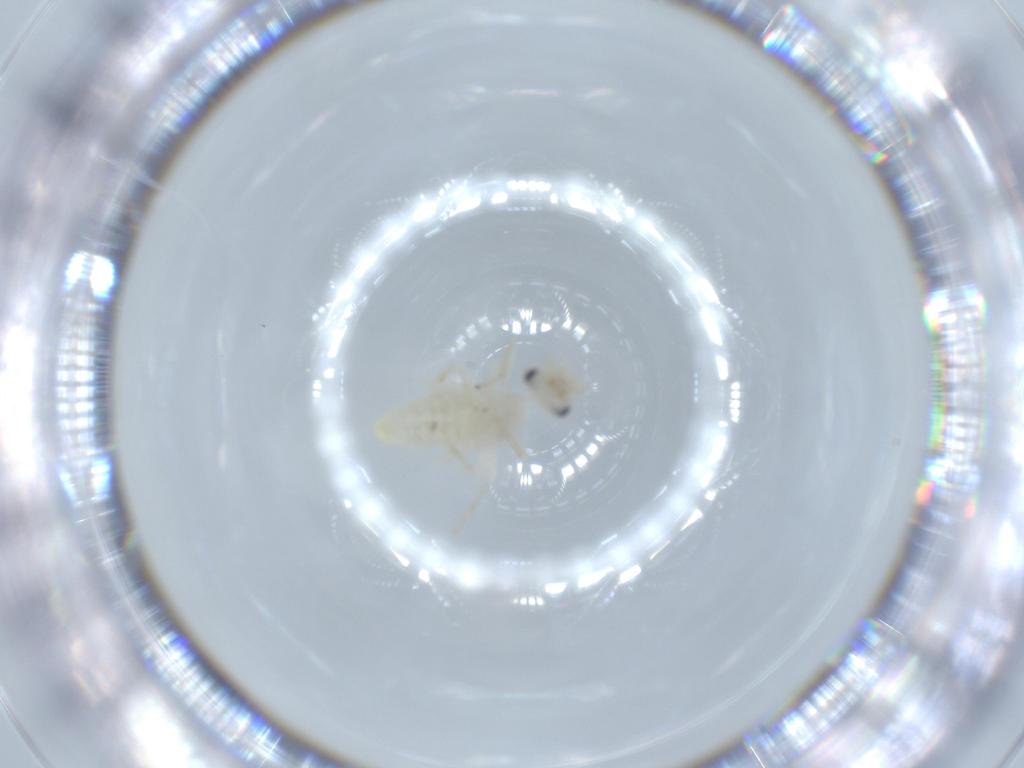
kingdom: Animalia
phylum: Arthropoda
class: Insecta
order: Psocodea
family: Caeciliusidae
